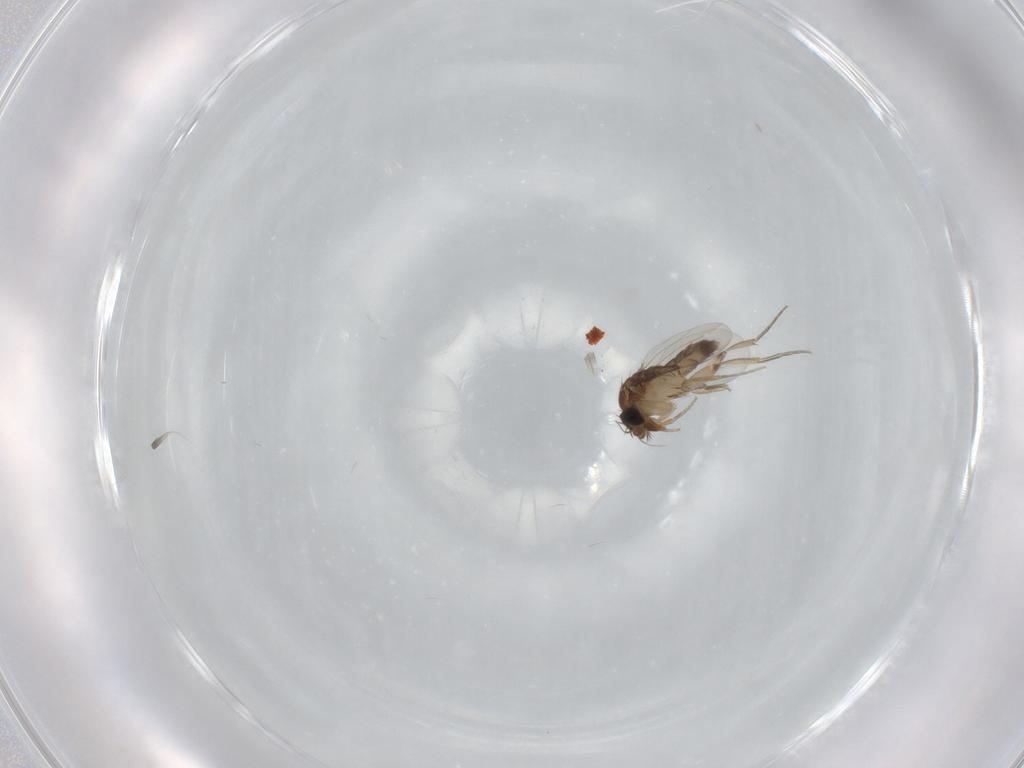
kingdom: Animalia
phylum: Arthropoda
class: Insecta
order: Diptera
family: Phoridae
